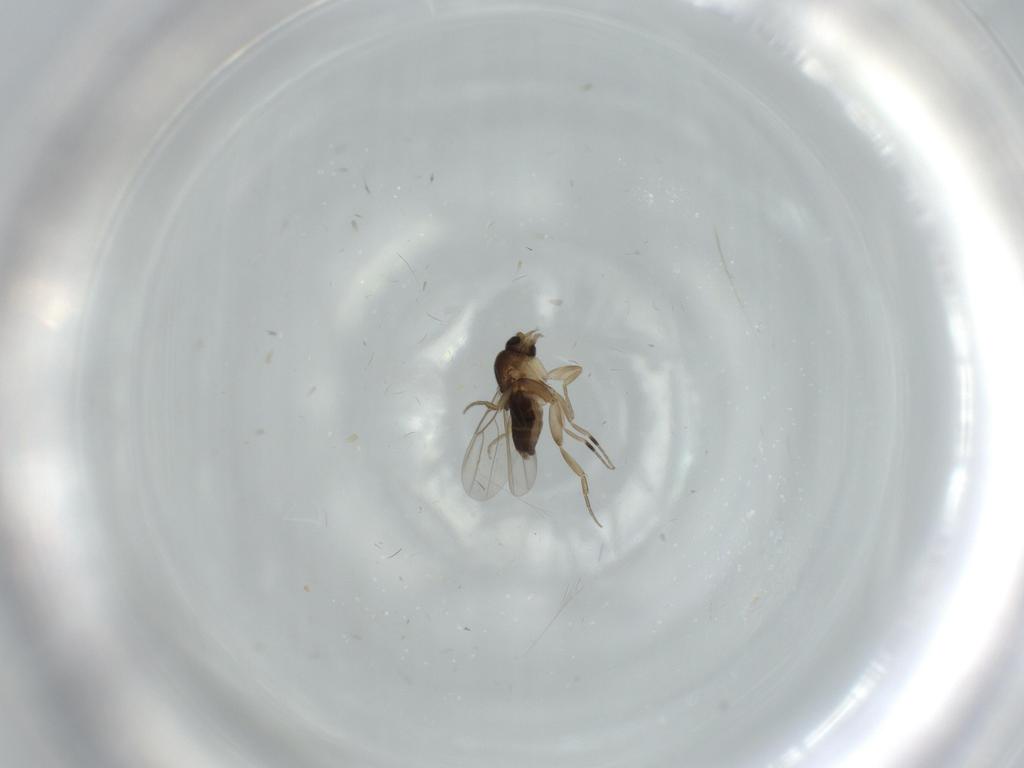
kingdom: Animalia
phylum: Arthropoda
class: Insecta
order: Diptera
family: Phoridae
